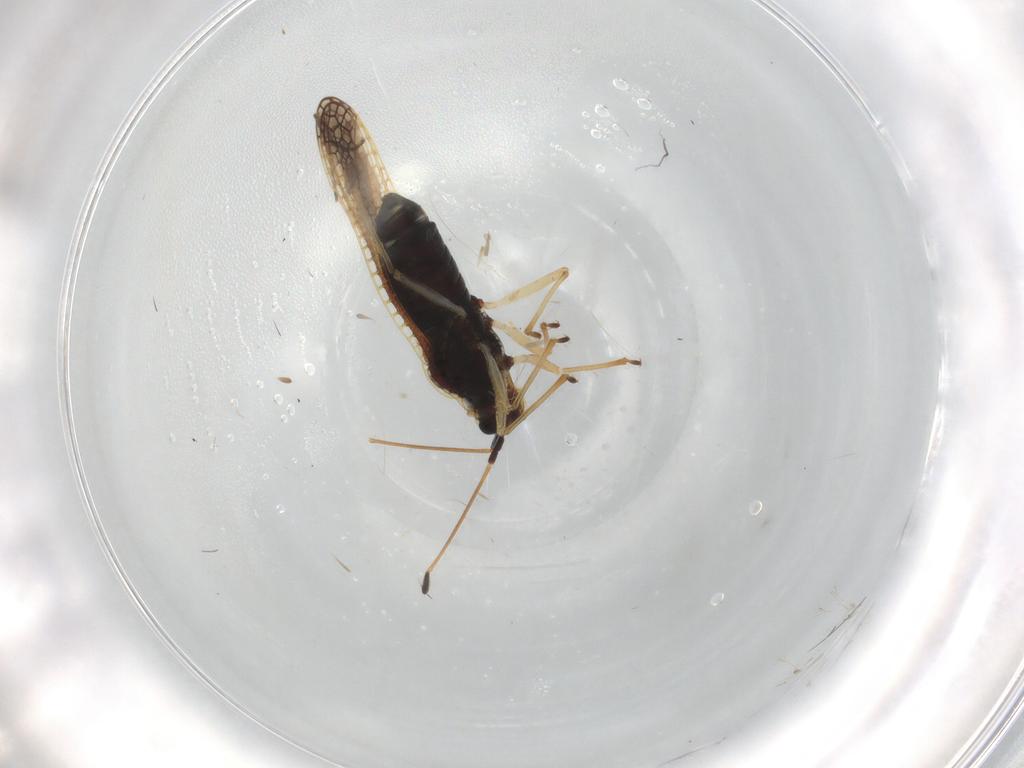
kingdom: Animalia
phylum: Arthropoda
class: Insecta
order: Hemiptera
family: Tingidae
